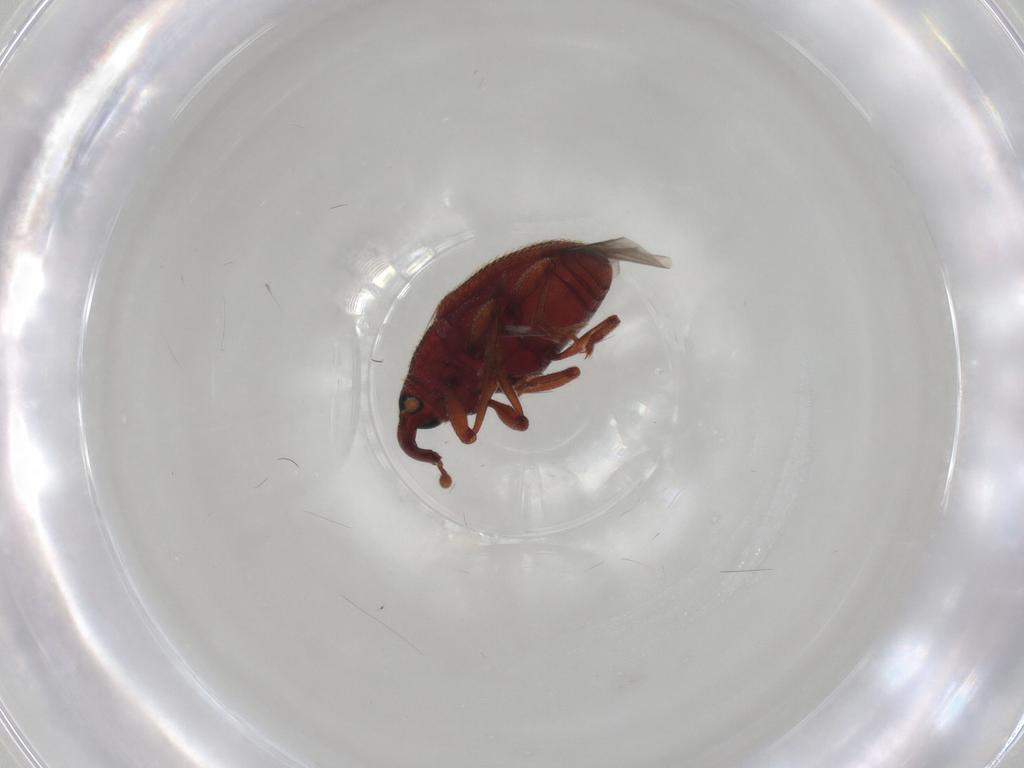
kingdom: Animalia
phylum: Arthropoda
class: Insecta
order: Coleoptera
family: Curculionidae
